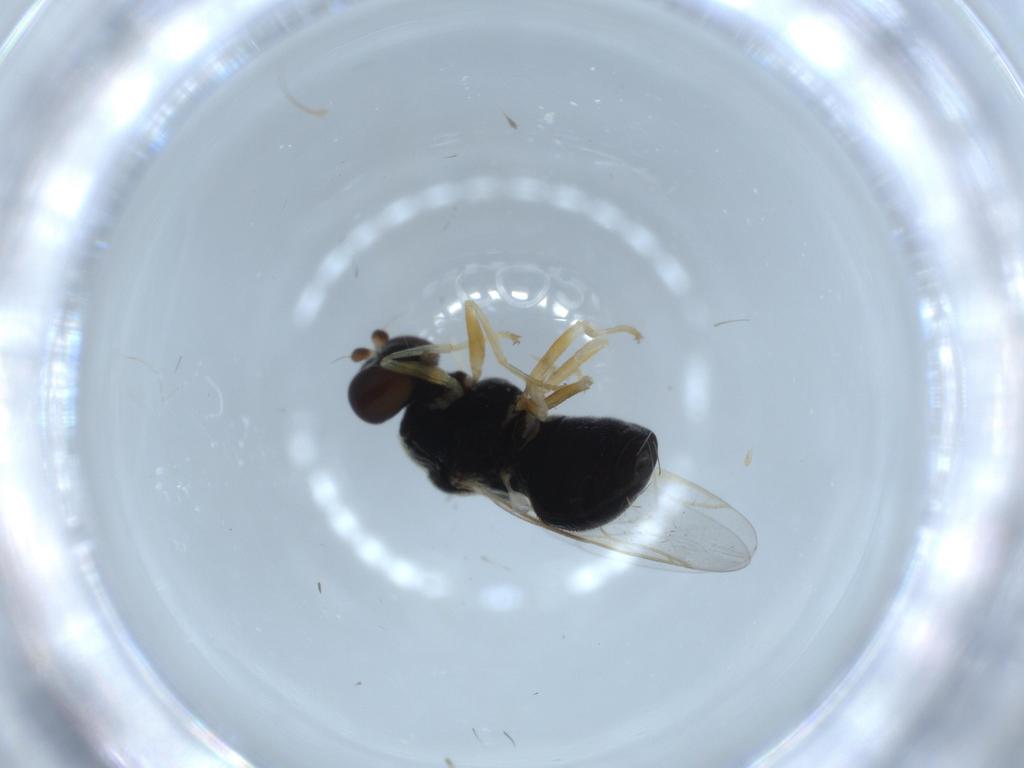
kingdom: Animalia
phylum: Arthropoda
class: Insecta
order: Diptera
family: Stratiomyidae
